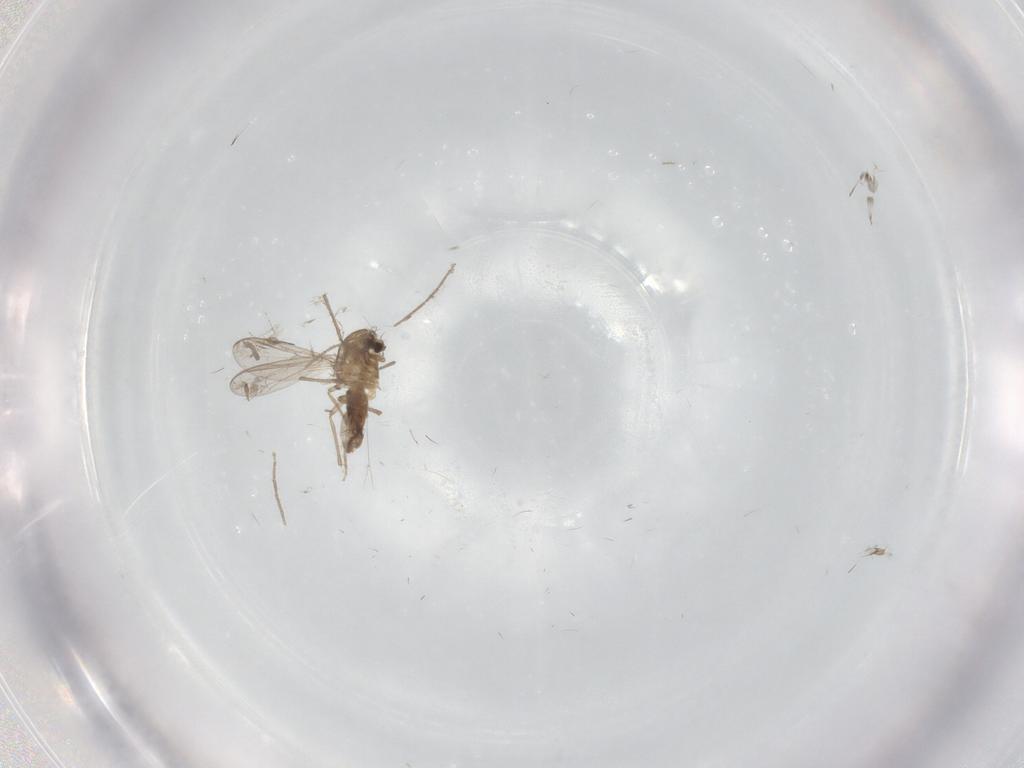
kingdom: Animalia
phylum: Arthropoda
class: Insecta
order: Diptera
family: Chironomidae
